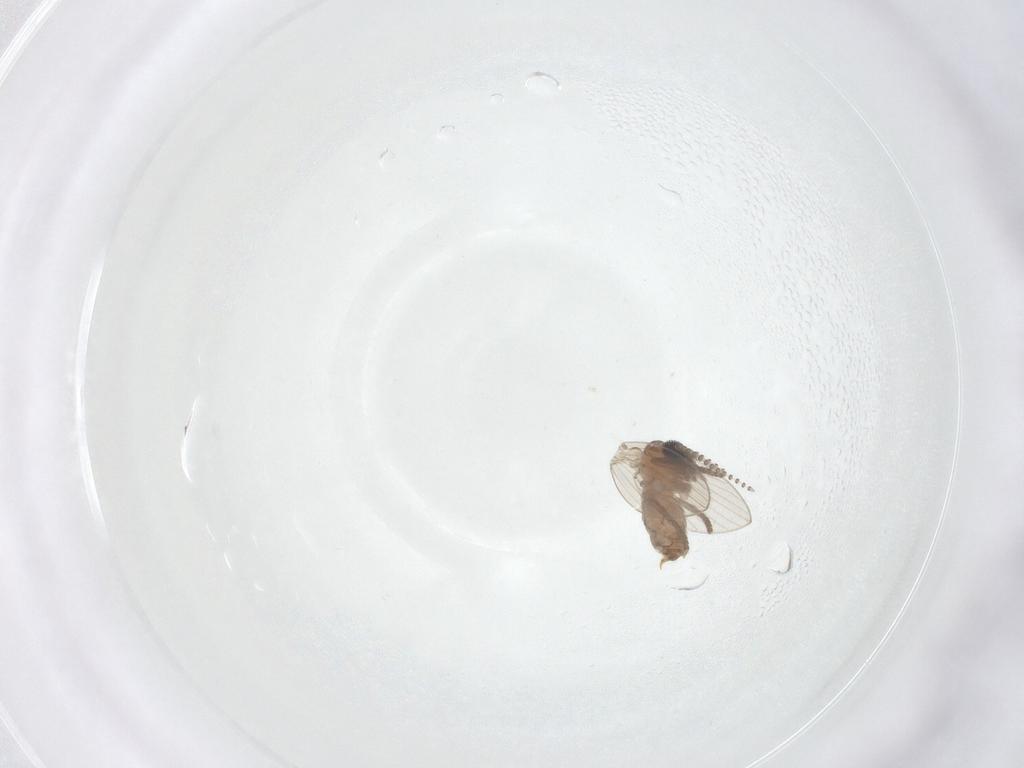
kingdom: Animalia
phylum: Arthropoda
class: Insecta
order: Diptera
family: Psychodidae
